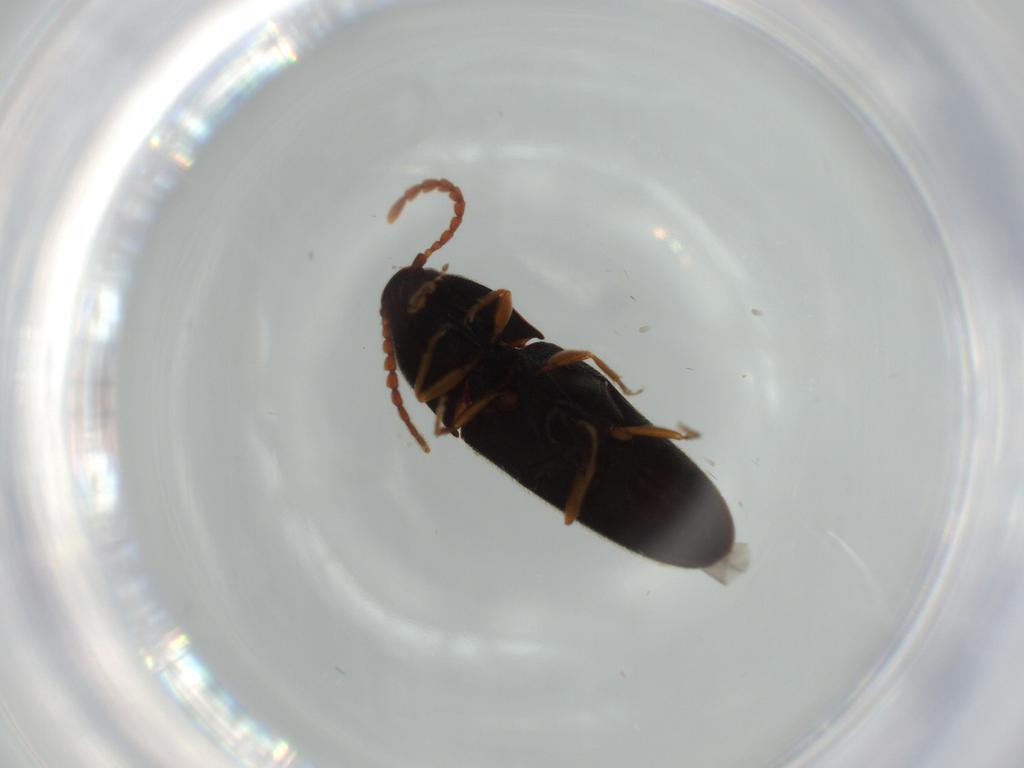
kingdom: Animalia
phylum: Arthropoda
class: Insecta
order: Coleoptera
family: Elateridae
